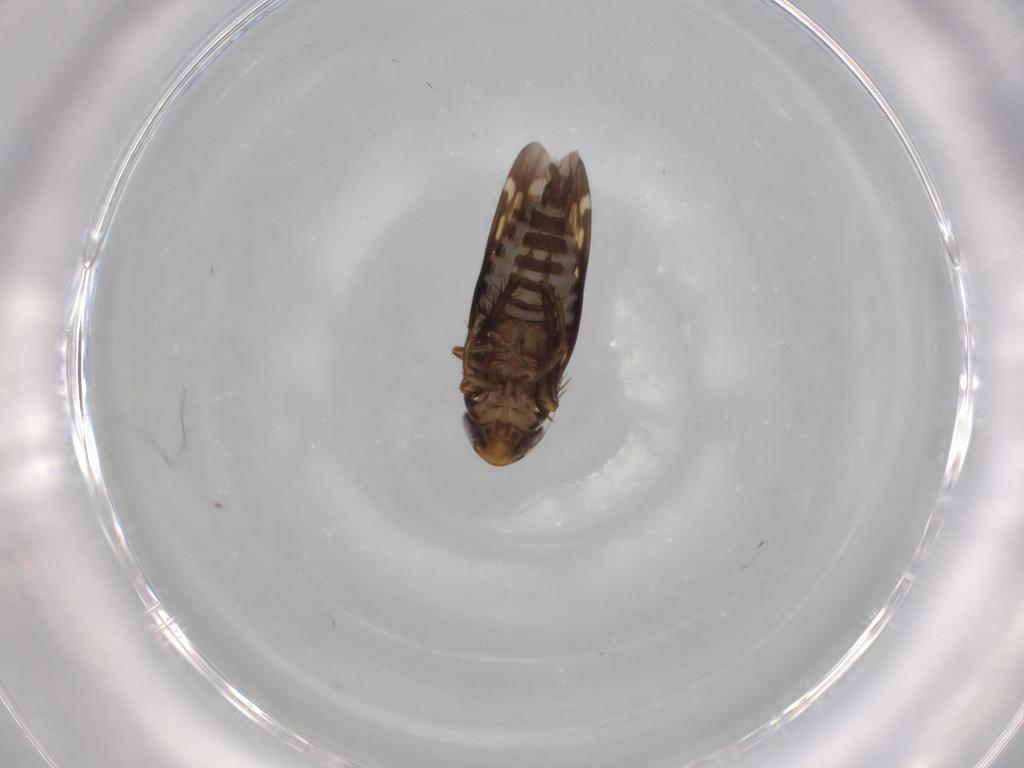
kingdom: Animalia
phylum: Arthropoda
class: Insecta
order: Hemiptera
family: Cicadellidae
